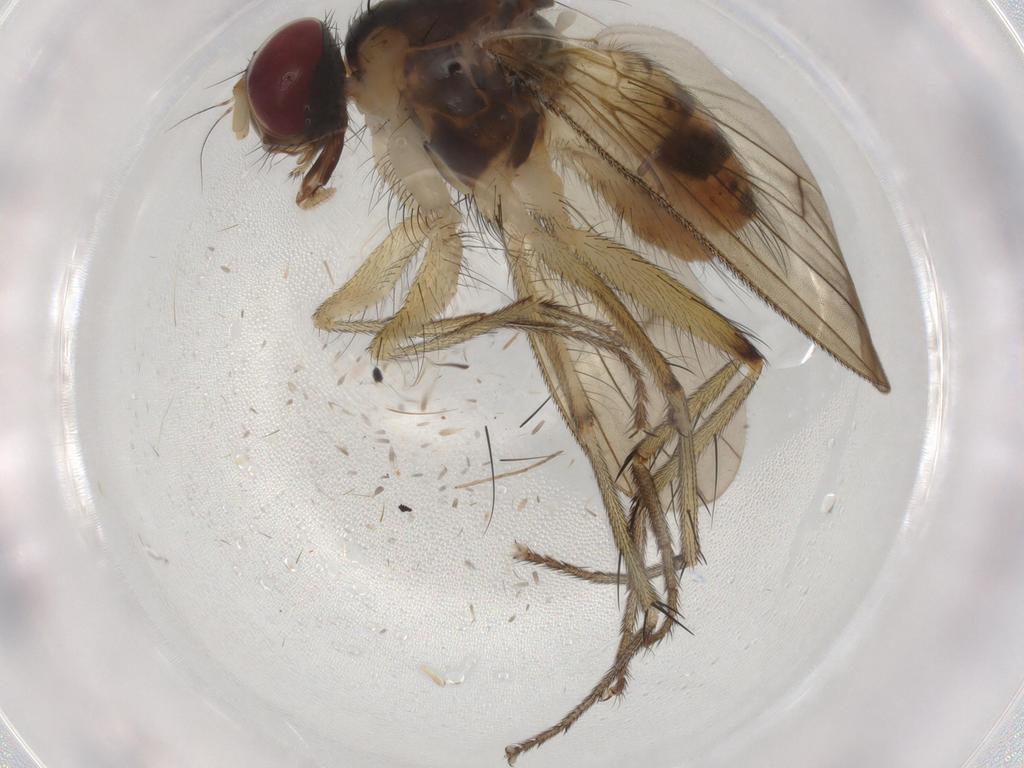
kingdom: Animalia
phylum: Arthropoda
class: Insecta
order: Diptera
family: Muscidae
